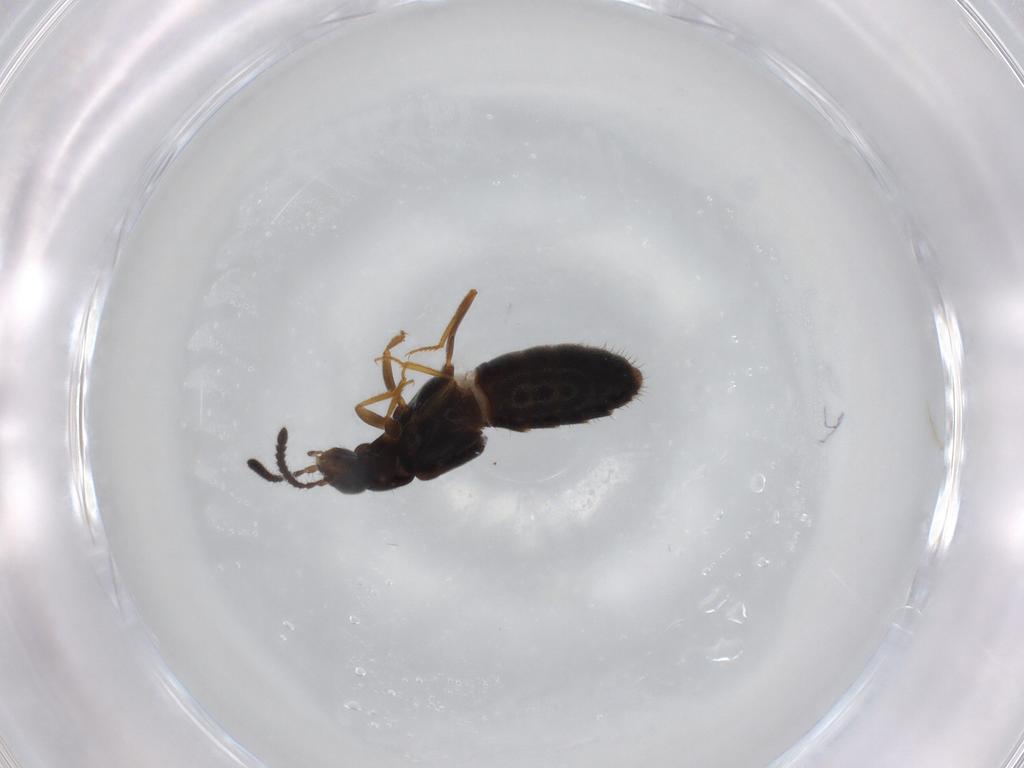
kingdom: Animalia
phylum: Arthropoda
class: Insecta
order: Coleoptera
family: Staphylinidae
